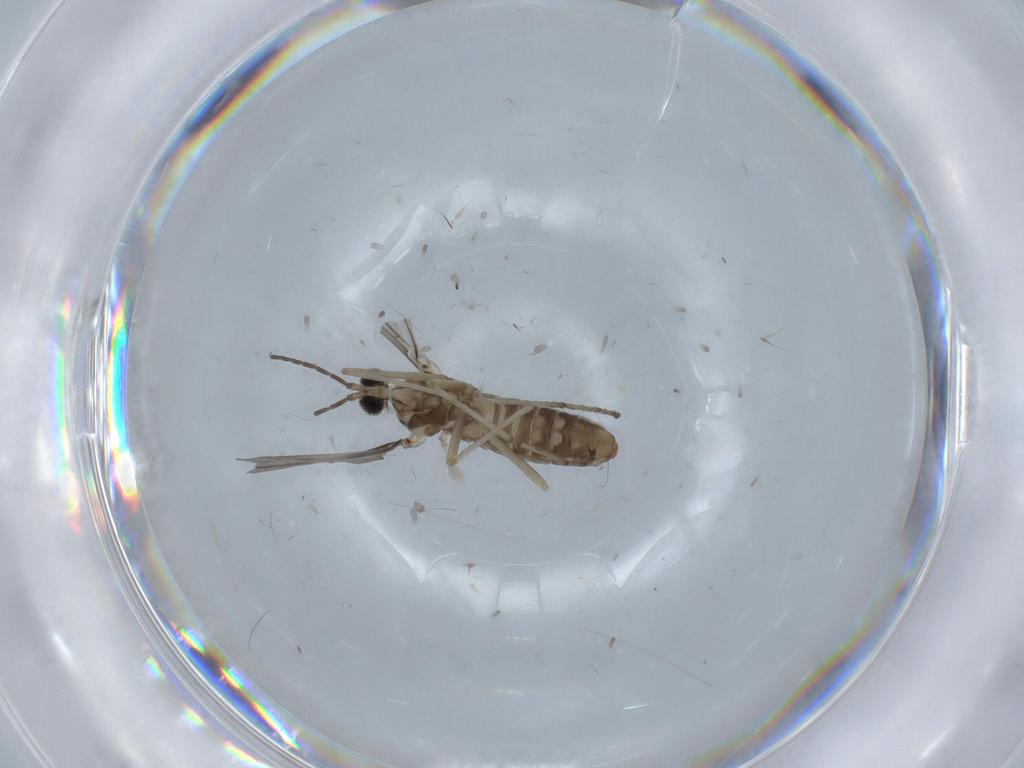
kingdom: Animalia
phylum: Arthropoda
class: Insecta
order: Diptera
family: Cecidomyiidae
